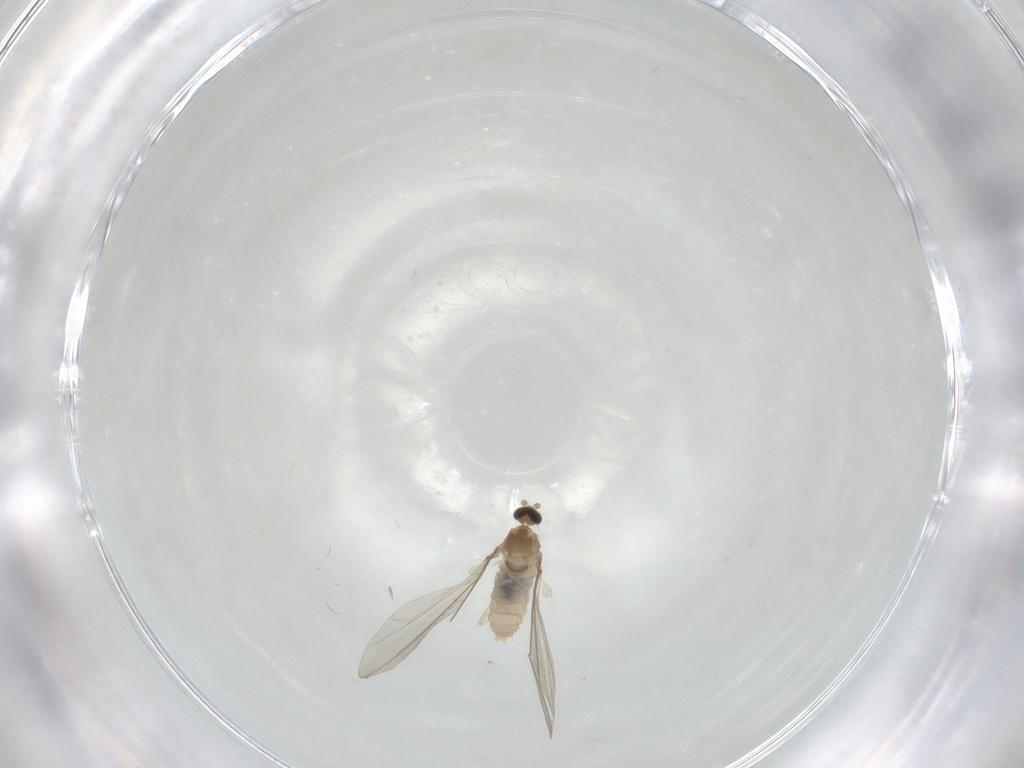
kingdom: Animalia
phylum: Arthropoda
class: Insecta
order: Diptera
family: Cecidomyiidae
